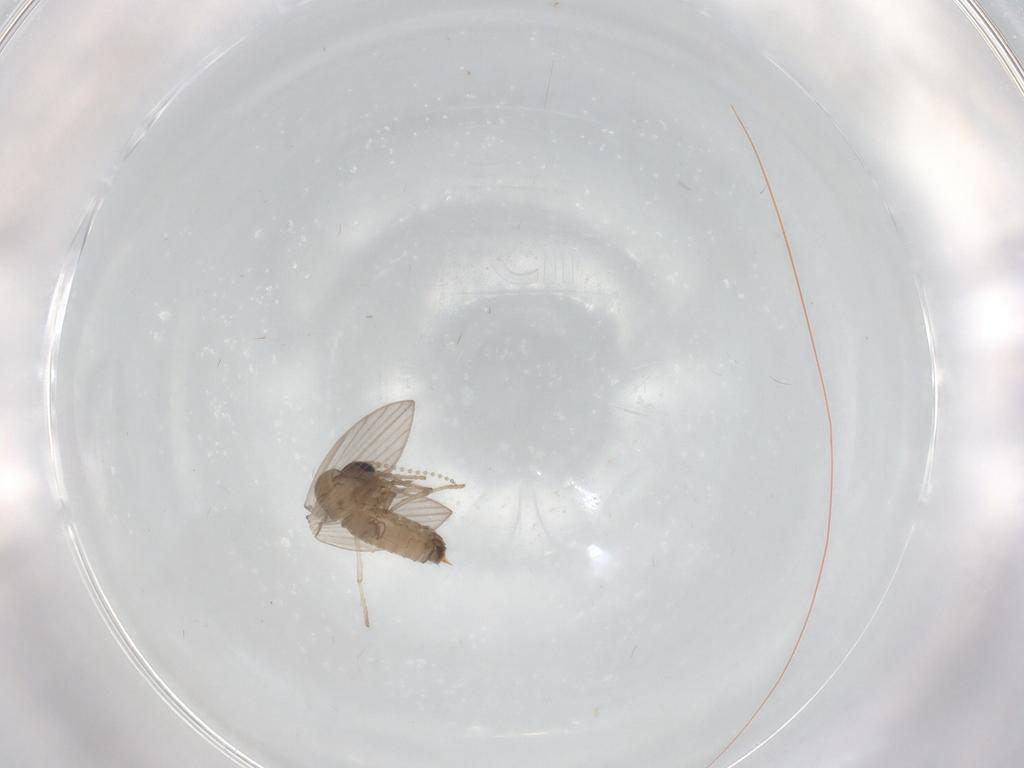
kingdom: Animalia
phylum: Arthropoda
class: Insecta
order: Diptera
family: Psychodidae
